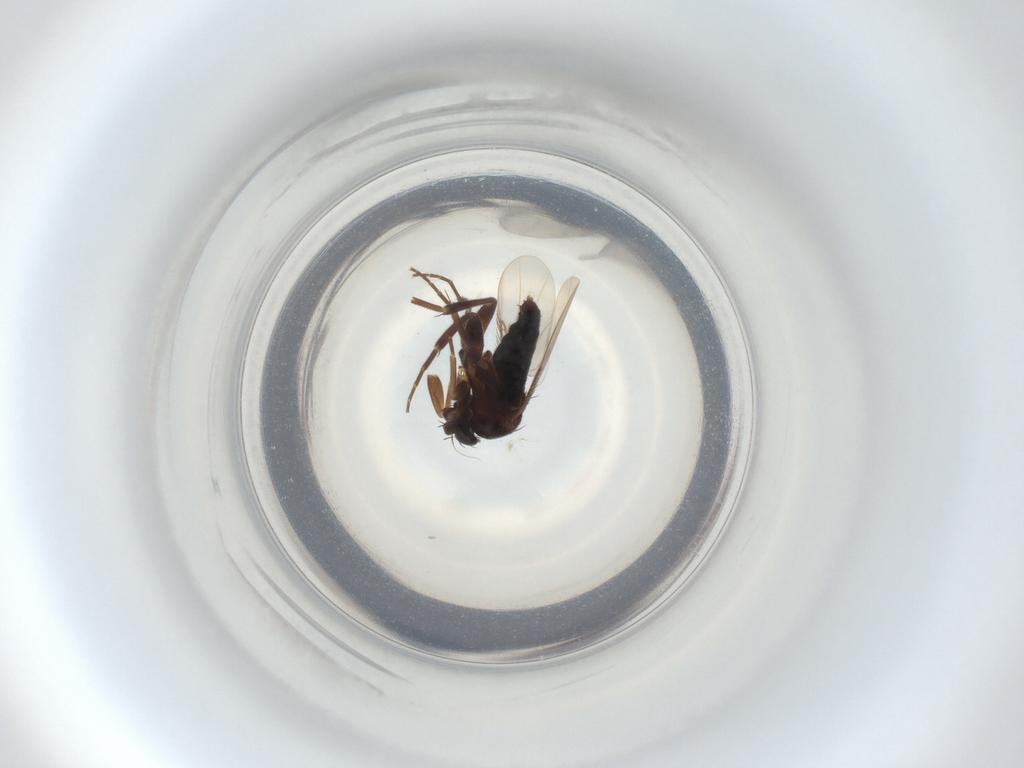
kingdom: Animalia
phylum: Arthropoda
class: Insecta
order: Diptera
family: Phoridae
